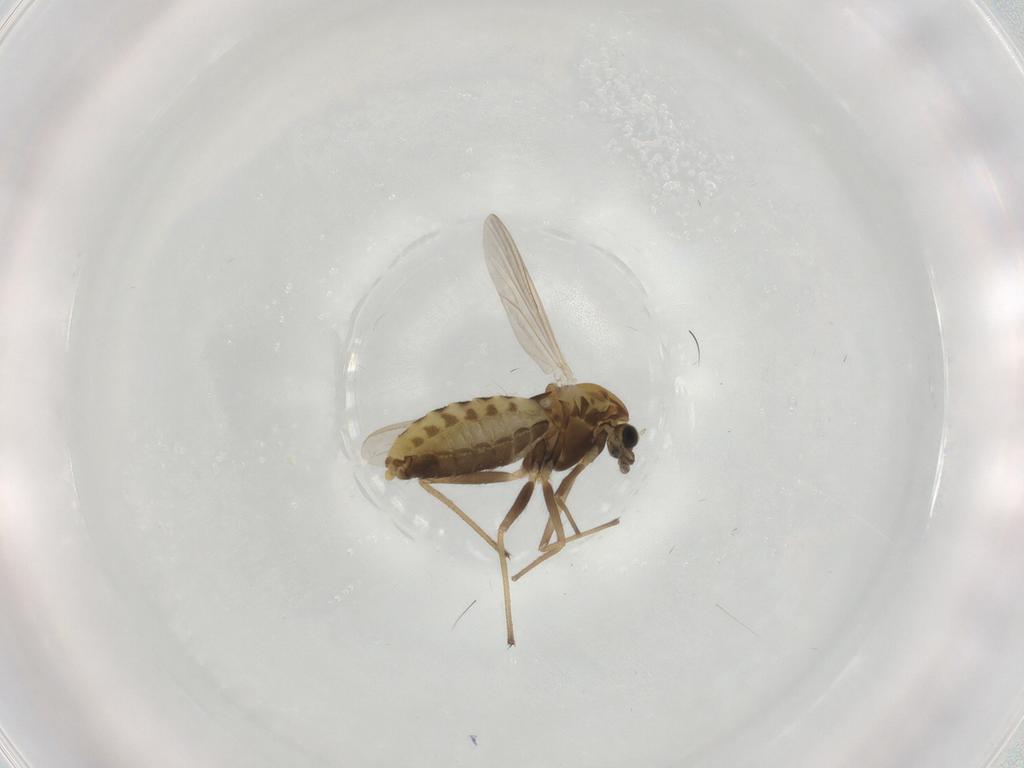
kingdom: Animalia
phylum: Arthropoda
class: Insecta
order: Diptera
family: Chironomidae
